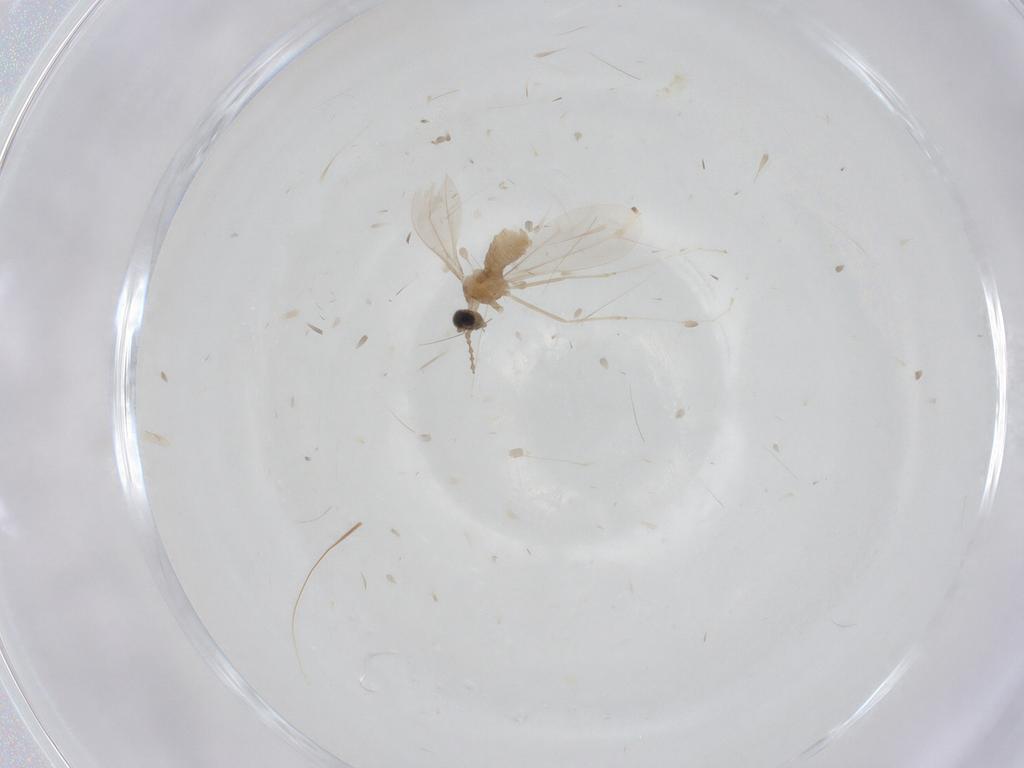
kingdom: Animalia
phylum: Arthropoda
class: Insecta
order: Diptera
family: Cecidomyiidae
